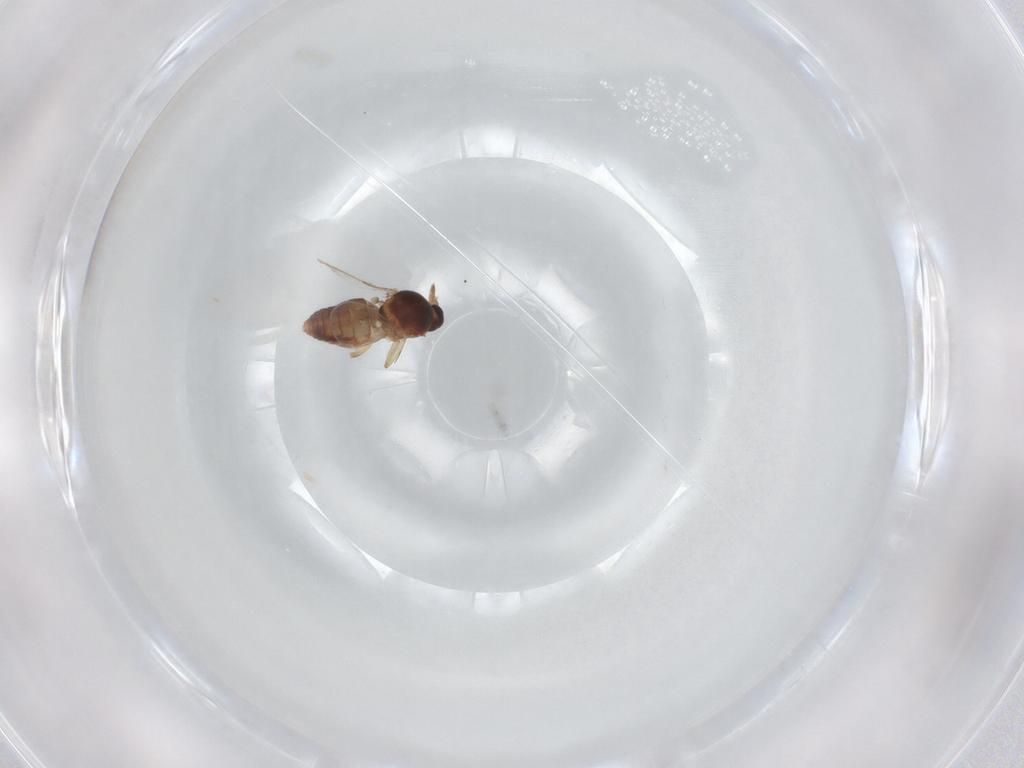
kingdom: Animalia
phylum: Arthropoda
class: Insecta
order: Diptera
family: Ceratopogonidae
